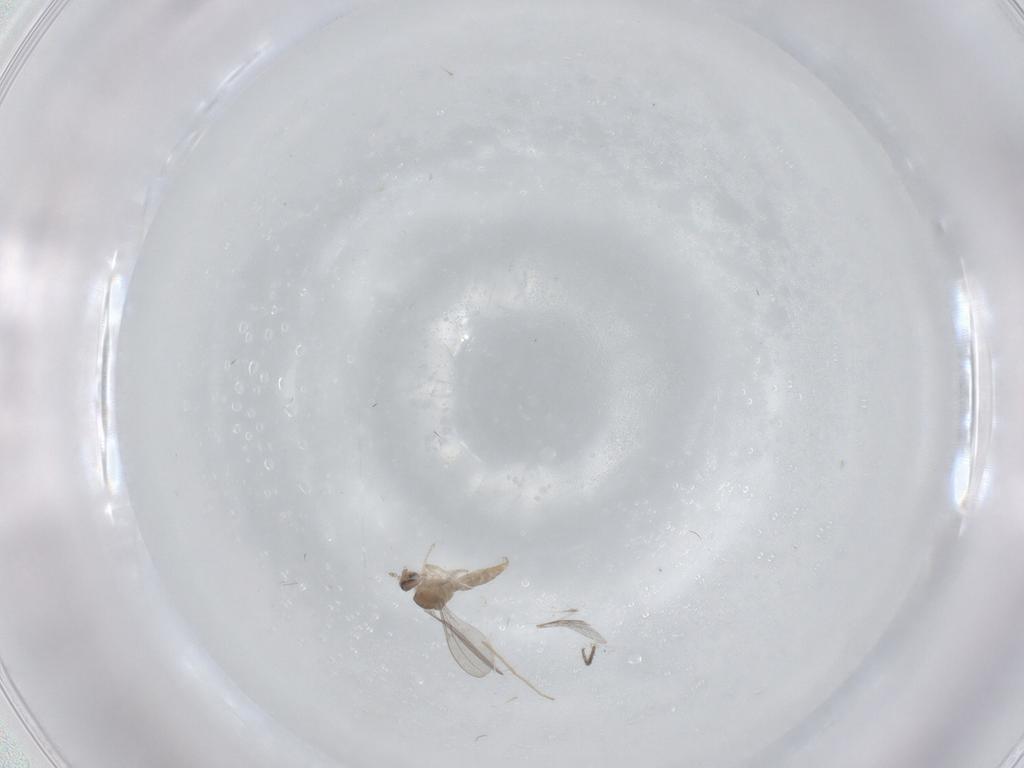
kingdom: Animalia
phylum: Arthropoda
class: Insecta
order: Diptera
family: Cecidomyiidae
